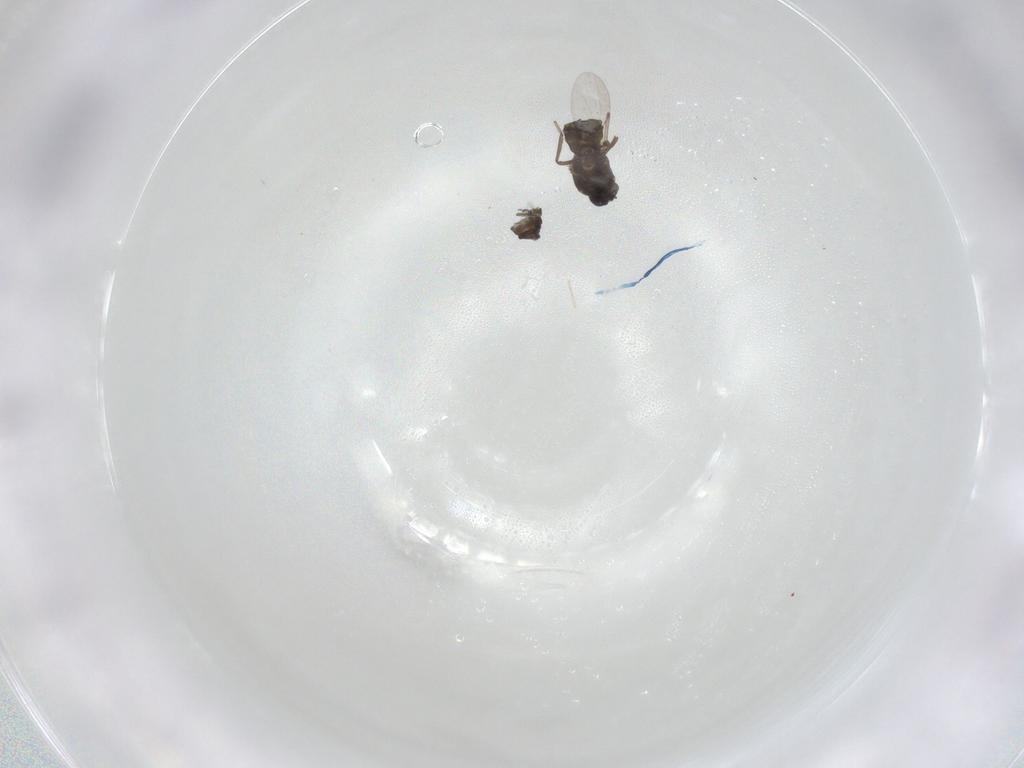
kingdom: Animalia
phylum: Arthropoda
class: Insecta
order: Diptera
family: Ceratopogonidae
